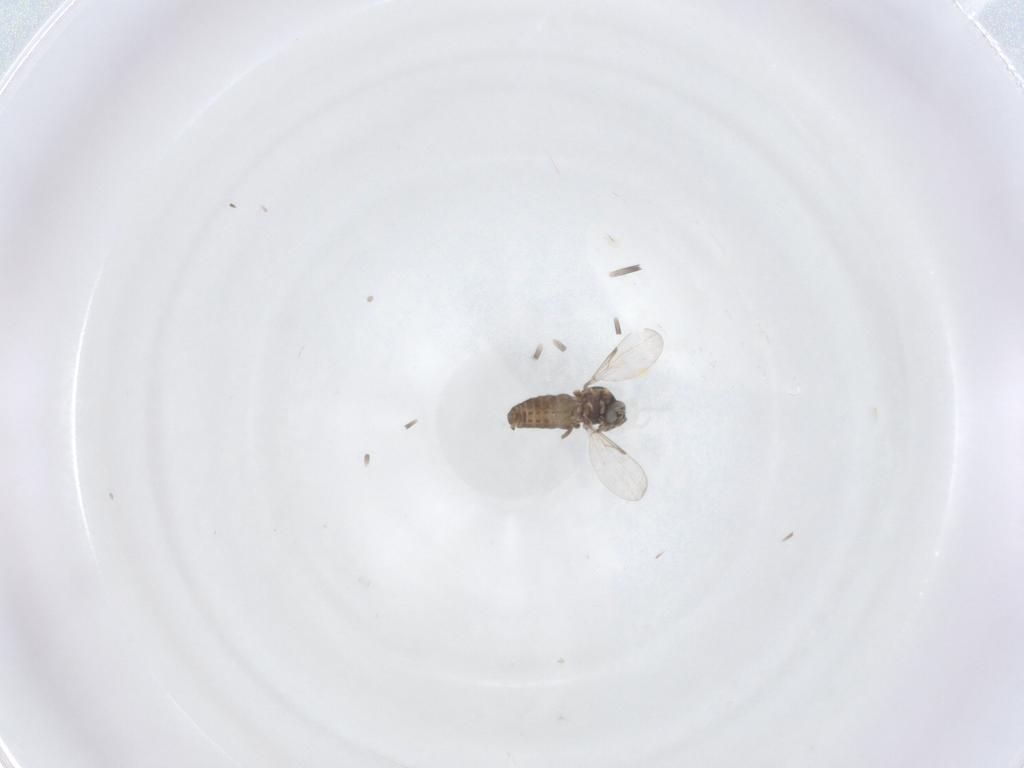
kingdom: Animalia
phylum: Arthropoda
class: Insecta
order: Diptera
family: Ceratopogonidae
